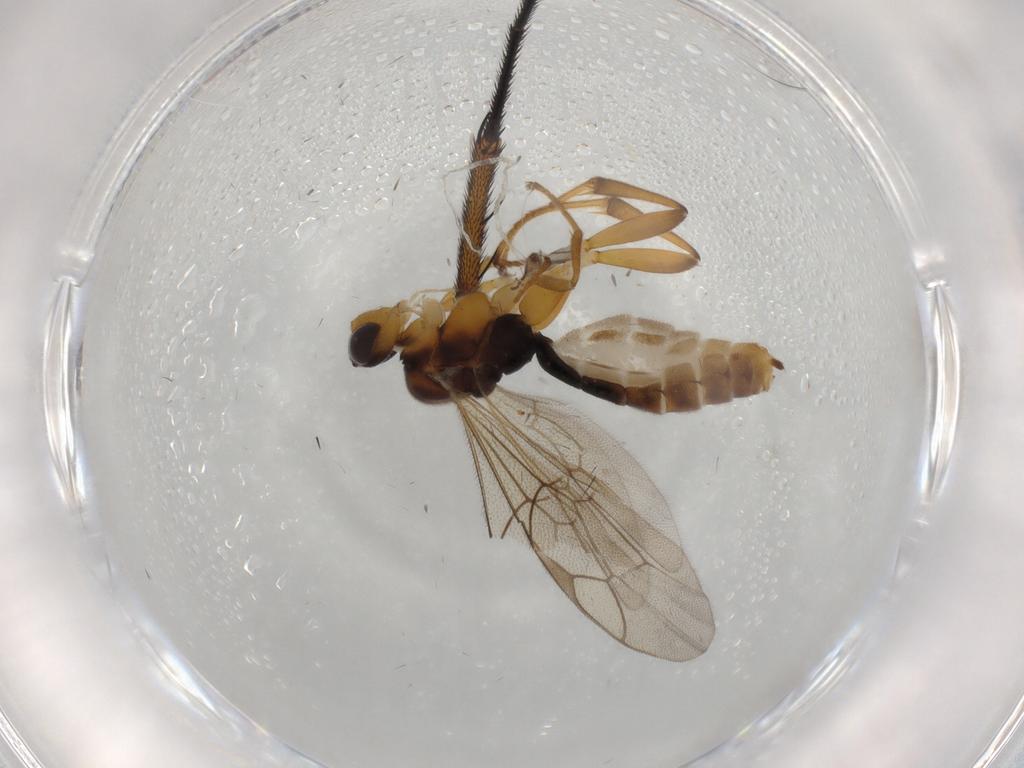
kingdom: Animalia
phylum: Arthropoda
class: Insecta
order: Hymenoptera
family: Ichneumonidae
